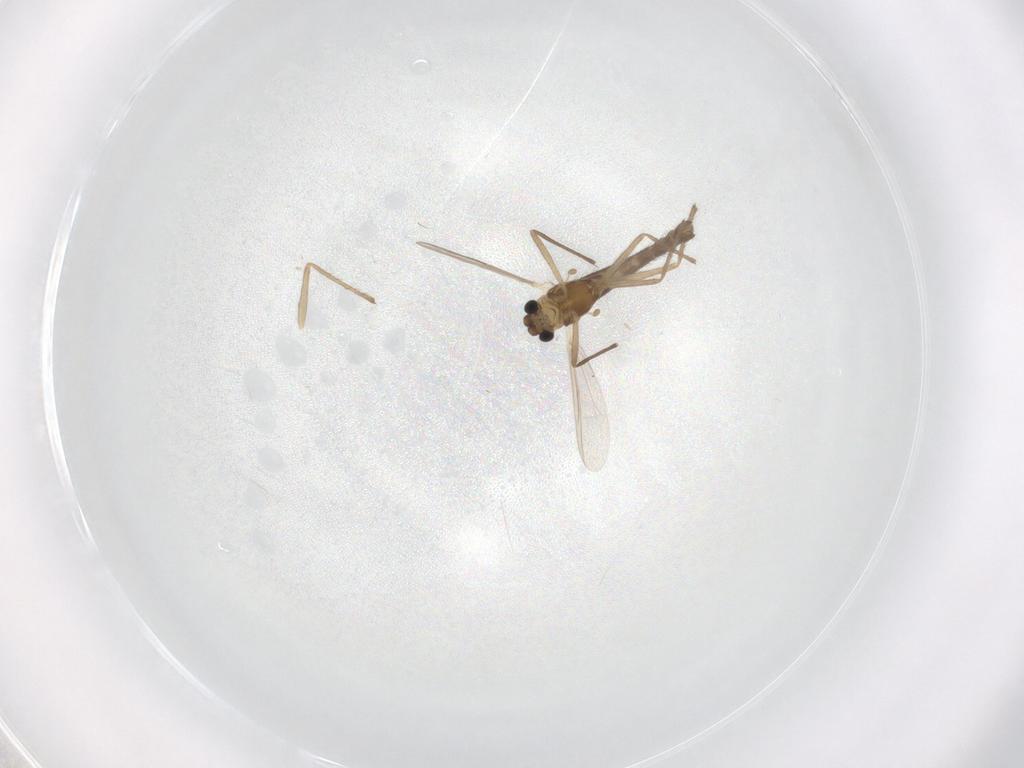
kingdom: Animalia
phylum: Arthropoda
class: Insecta
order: Diptera
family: Chironomidae
